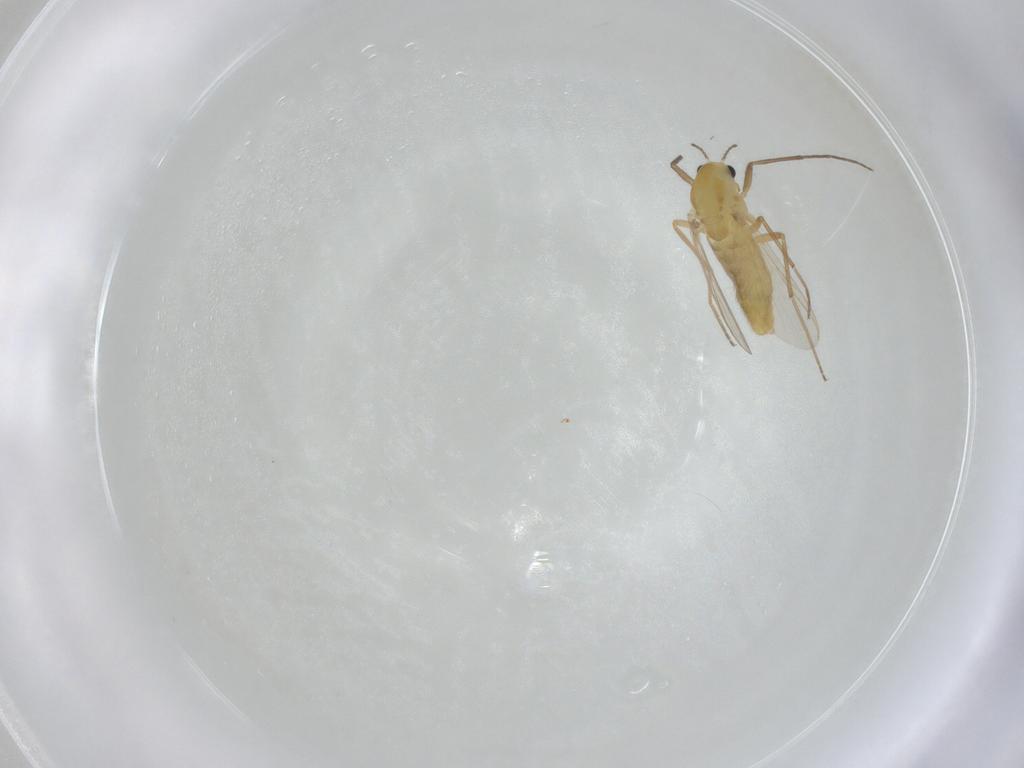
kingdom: Animalia
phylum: Arthropoda
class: Insecta
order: Diptera
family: Chironomidae
